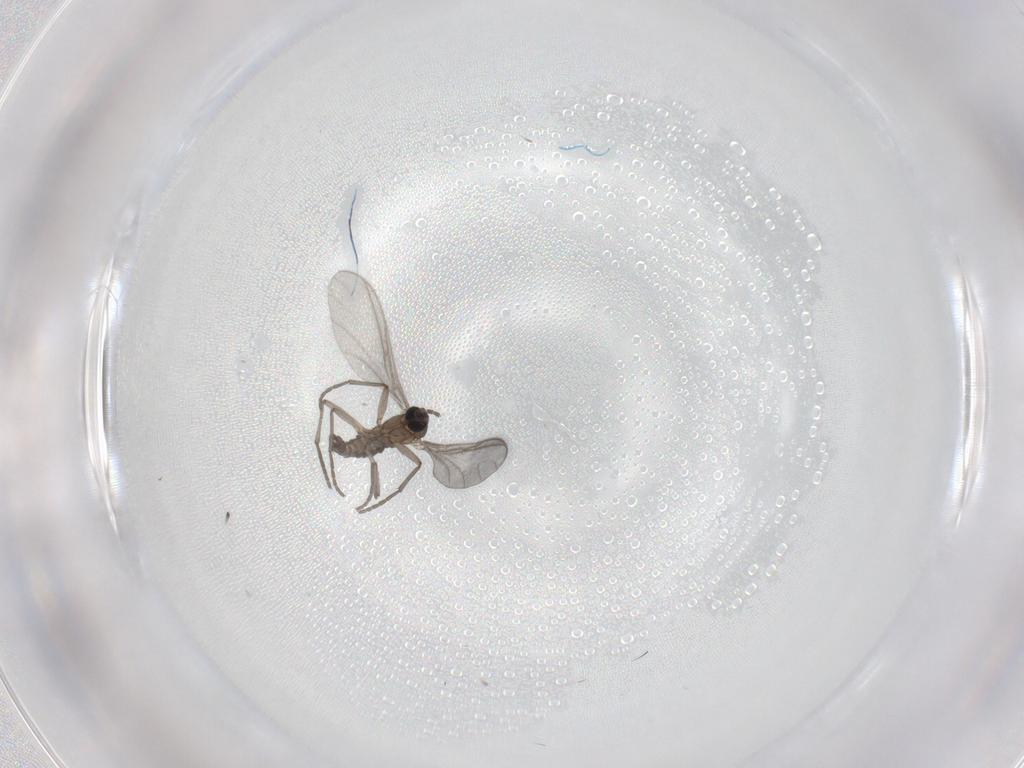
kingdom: Animalia
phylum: Arthropoda
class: Insecta
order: Diptera
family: Sciaridae
